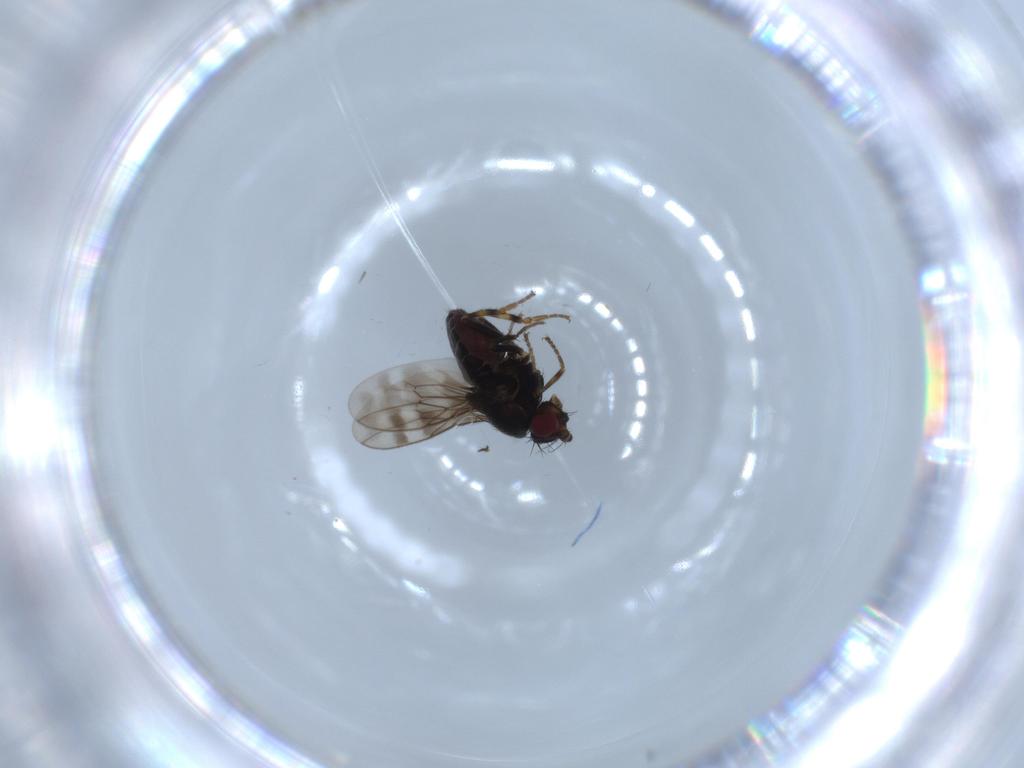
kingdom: Animalia
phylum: Arthropoda
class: Insecta
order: Diptera
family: Sphaeroceridae
